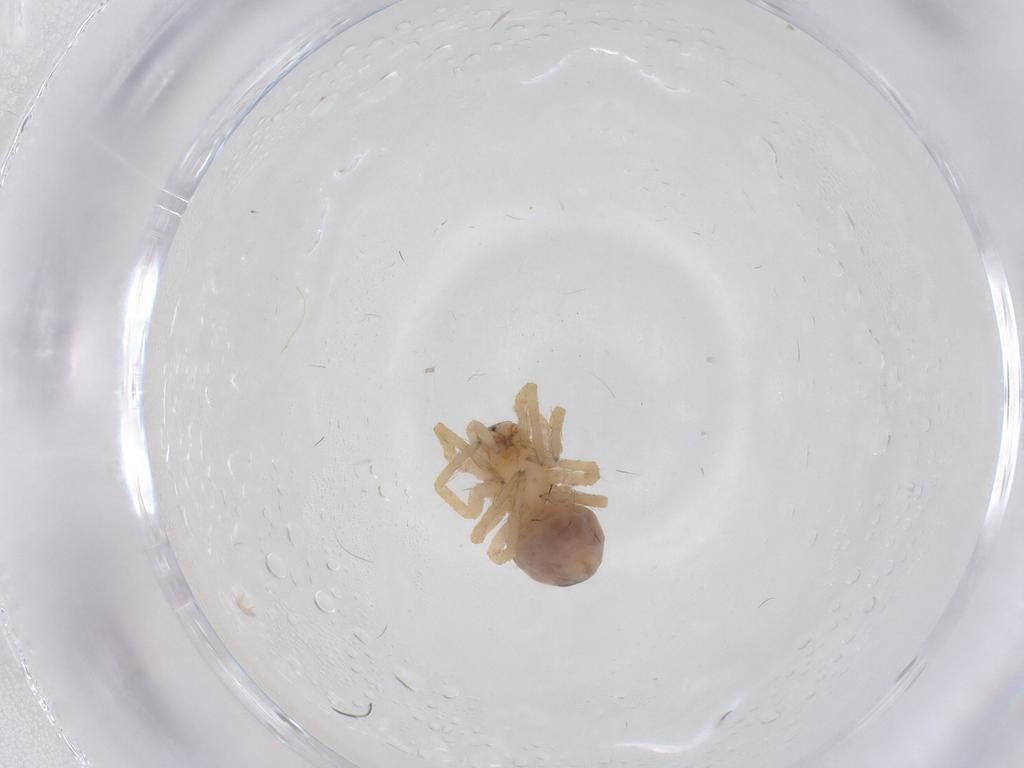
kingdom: Animalia
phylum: Arthropoda
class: Arachnida
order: Araneae
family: Desidae
